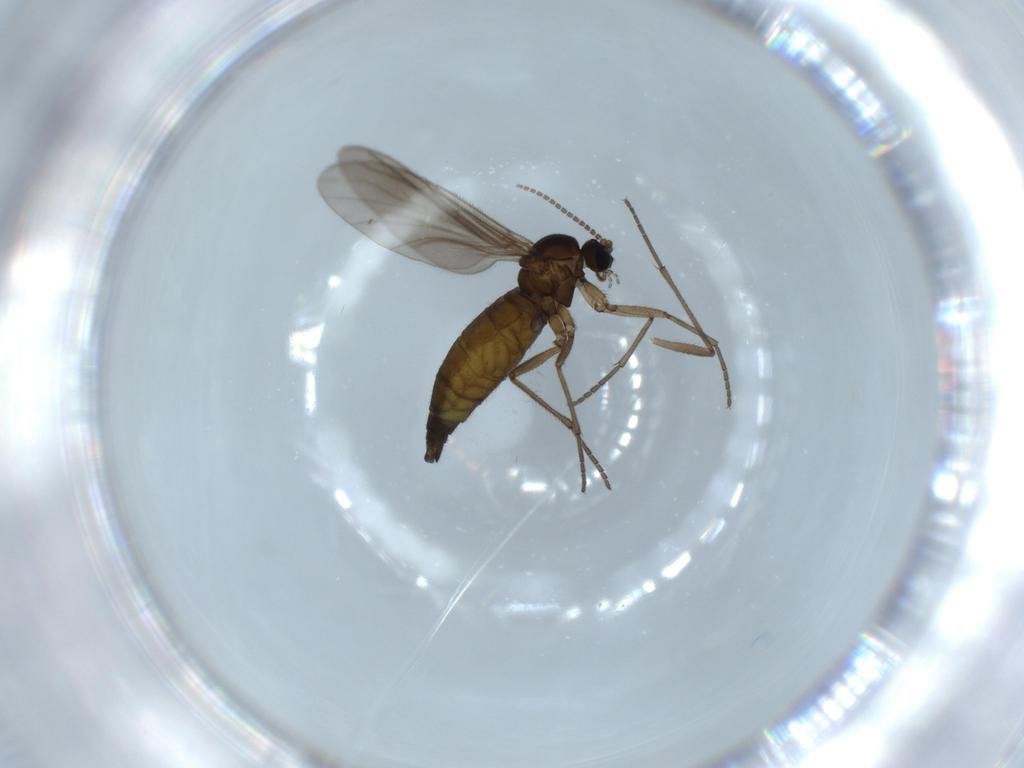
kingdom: Animalia
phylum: Arthropoda
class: Insecta
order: Diptera
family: Sciaridae
